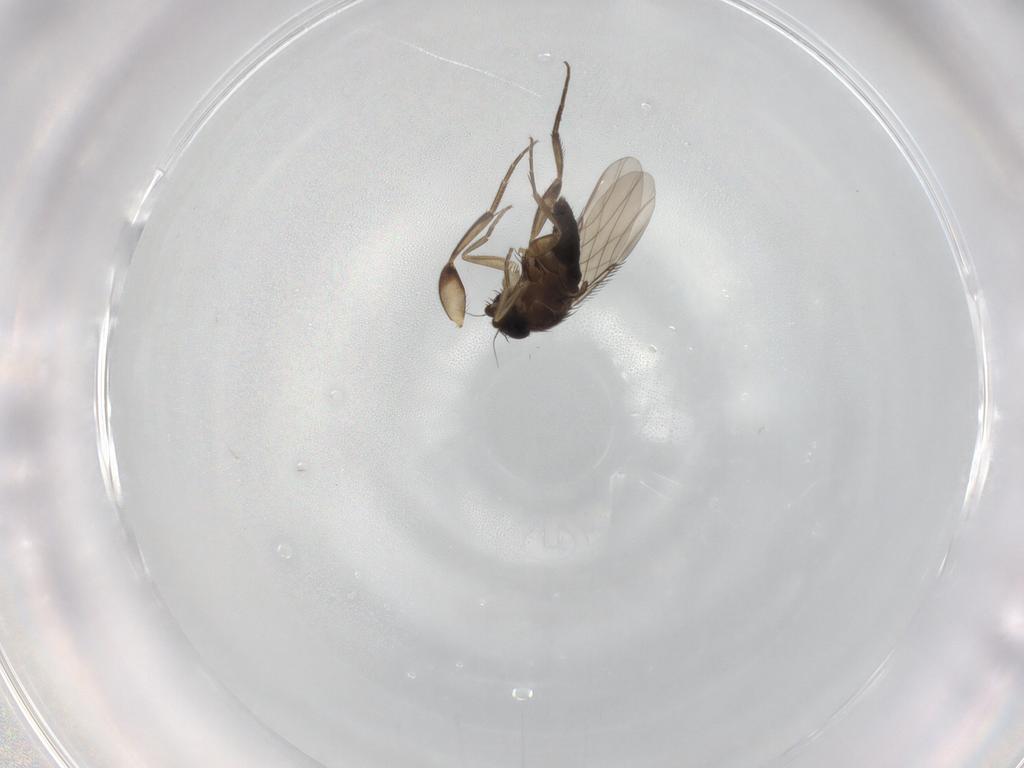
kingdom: Animalia
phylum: Arthropoda
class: Insecta
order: Diptera
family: Phoridae
